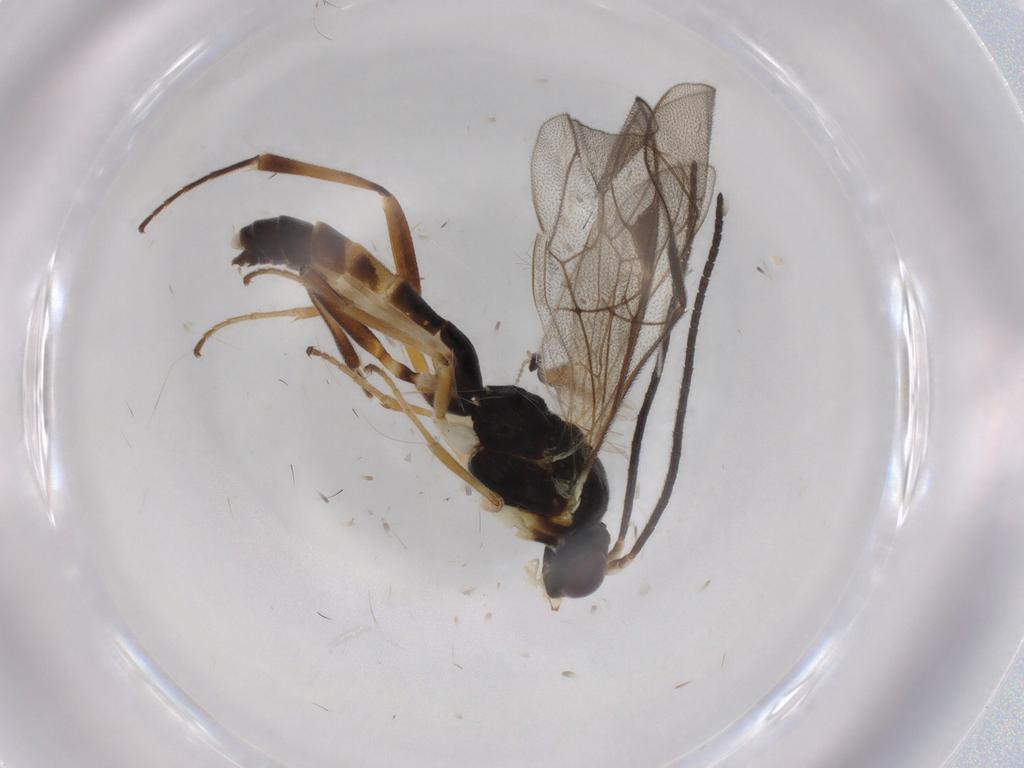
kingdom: Animalia
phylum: Arthropoda
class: Insecta
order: Hymenoptera
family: Ichneumonidae
